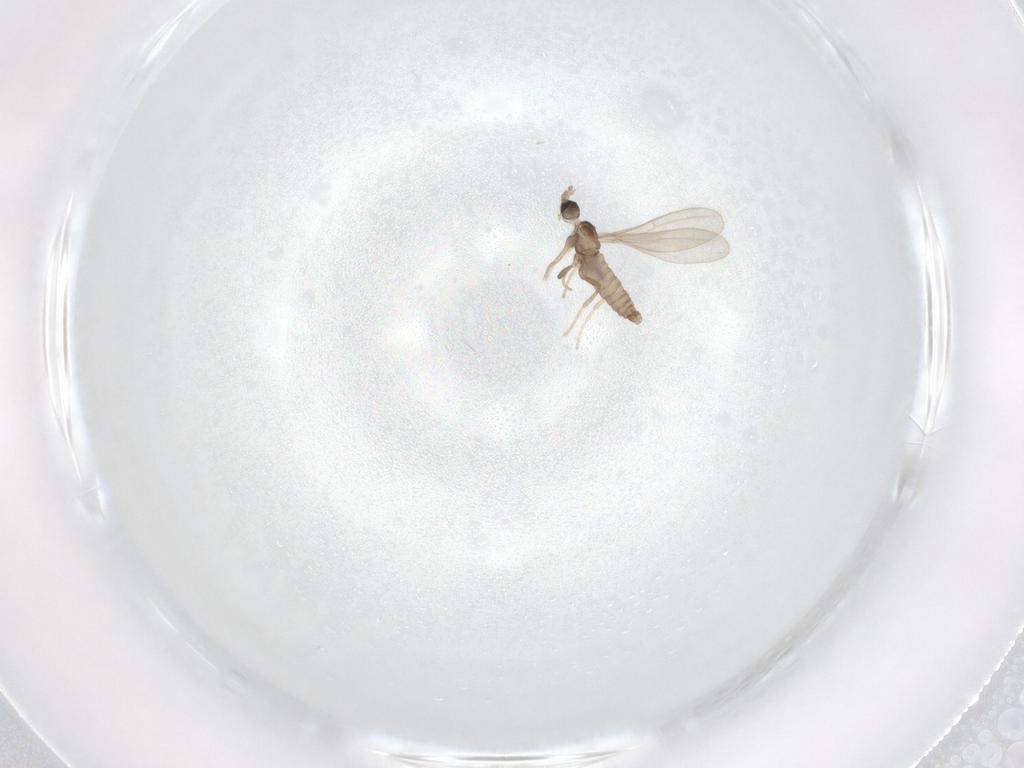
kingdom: Animalia
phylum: Arthropoda
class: Insecta
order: Diptera
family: Cecidomyiidae
